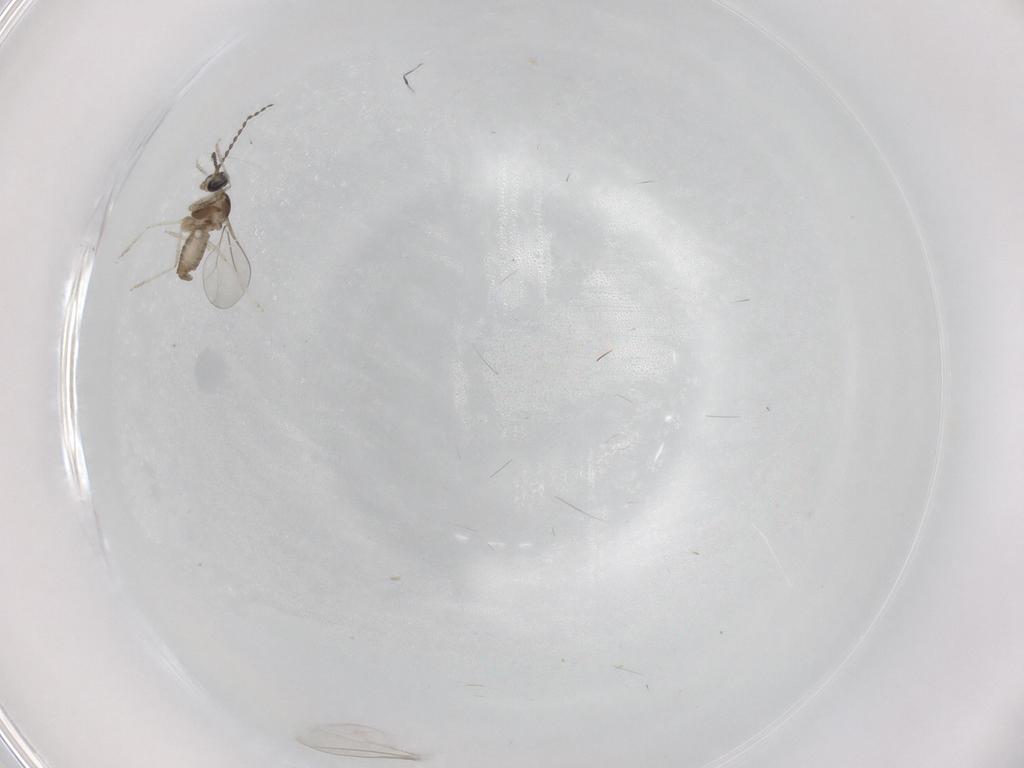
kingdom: Animalia
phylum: Arthropoda
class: Insecta
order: Diptera
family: Cecidomyiidae
